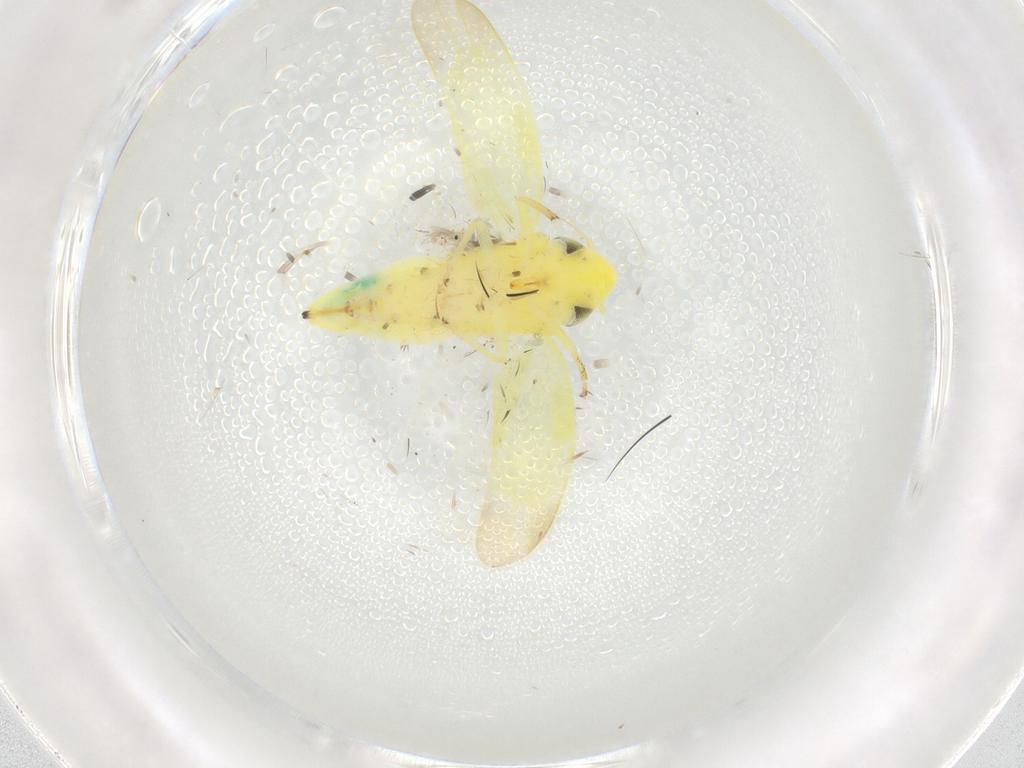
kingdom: Animalia
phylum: Arthropoda
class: Insecta
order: Hemiptera
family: Cicadellidae
